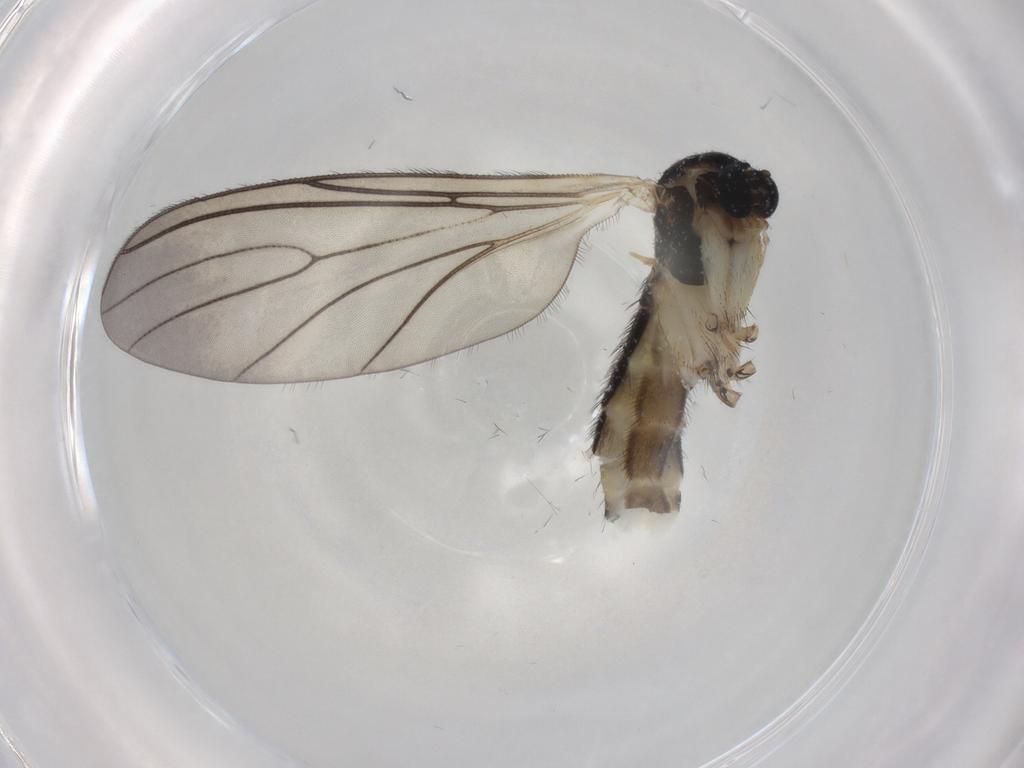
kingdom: Animalia
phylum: Arthropoda
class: Insecta
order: Diptera
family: Sciaridae
